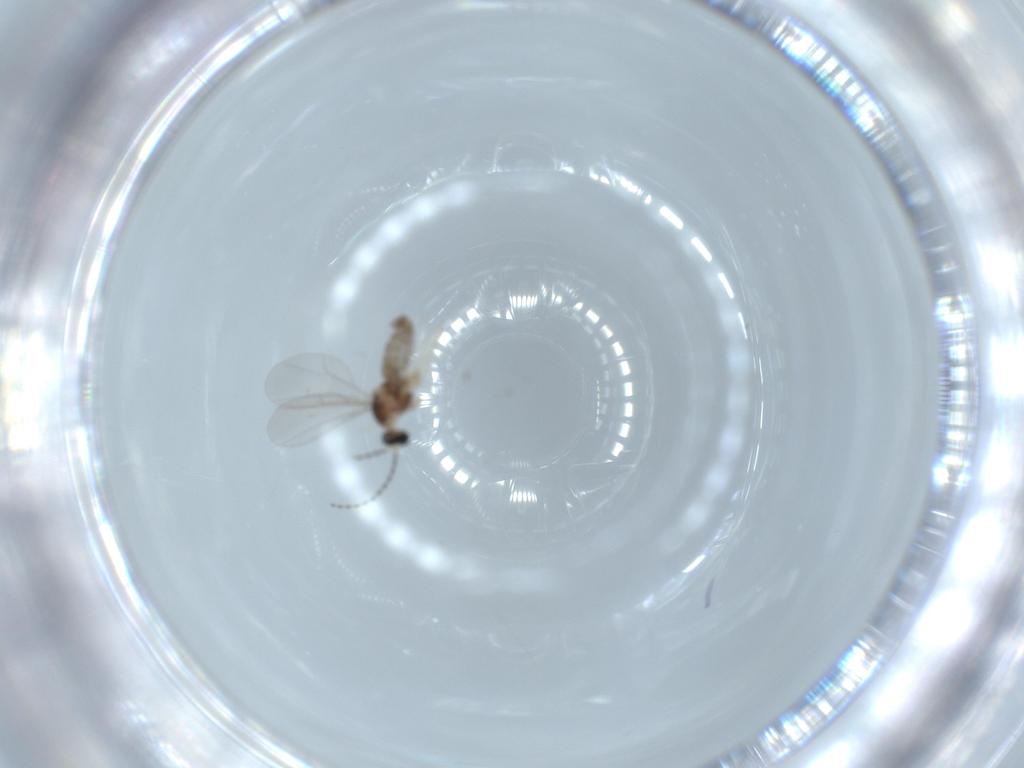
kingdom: Animalia
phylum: Arthropoda
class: Insecta
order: Diptera
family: Cecidomyiidae
